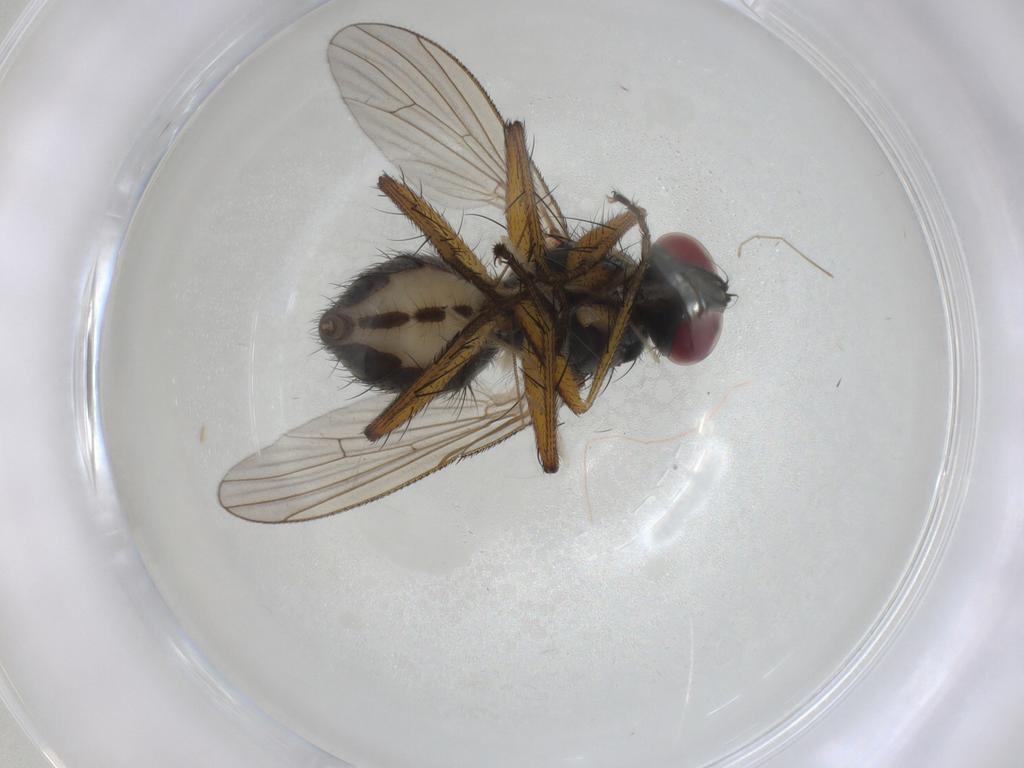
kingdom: Animalia
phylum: Arthropoda
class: Insecta
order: Diptera
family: Muscidae
